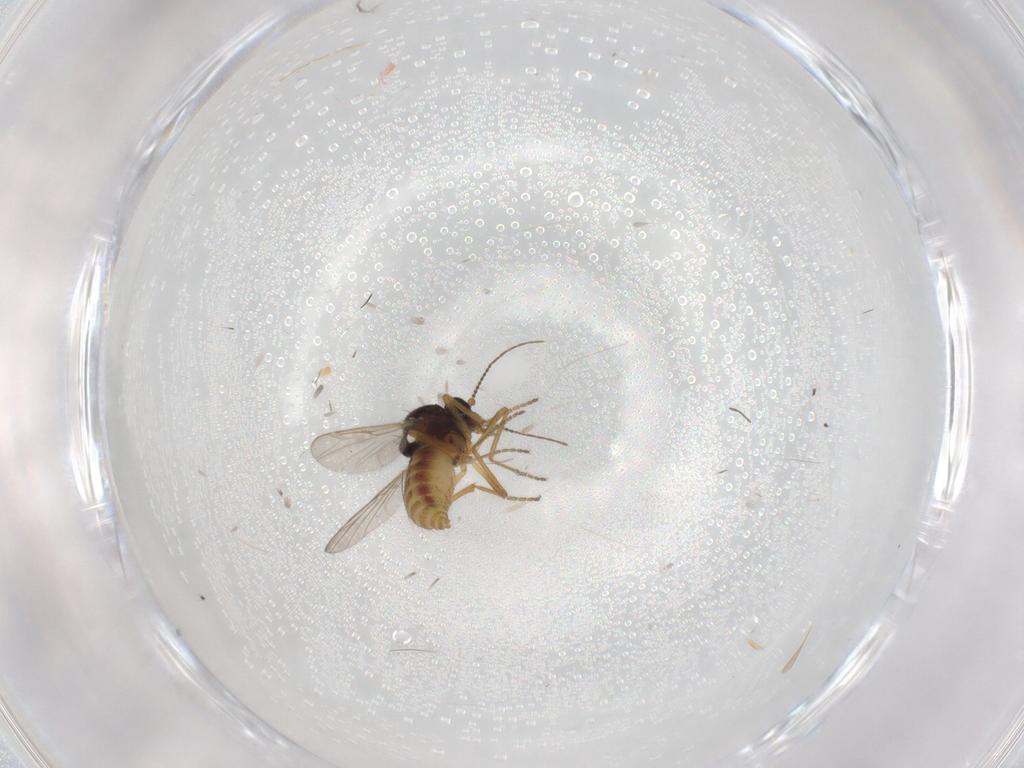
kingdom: Animalia
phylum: Arthropoda
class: Insecta
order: Diptera
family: Ceratopogonidae
